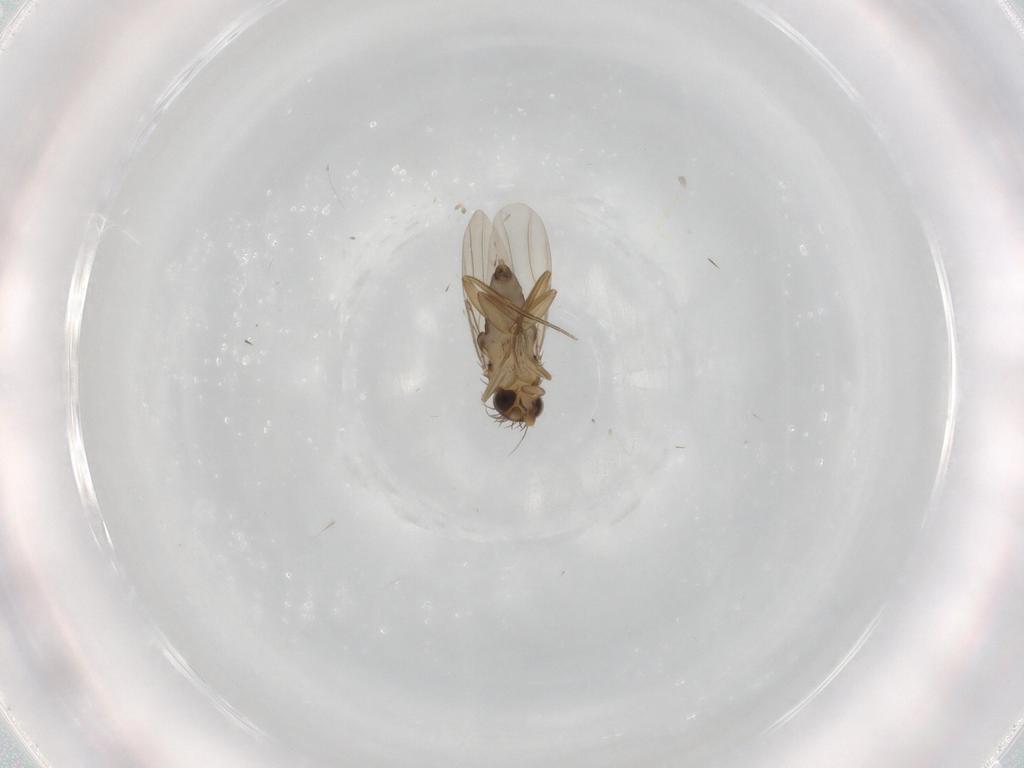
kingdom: Animalia
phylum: Arthropoda
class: Insecta
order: Diptera
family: Phoridae
